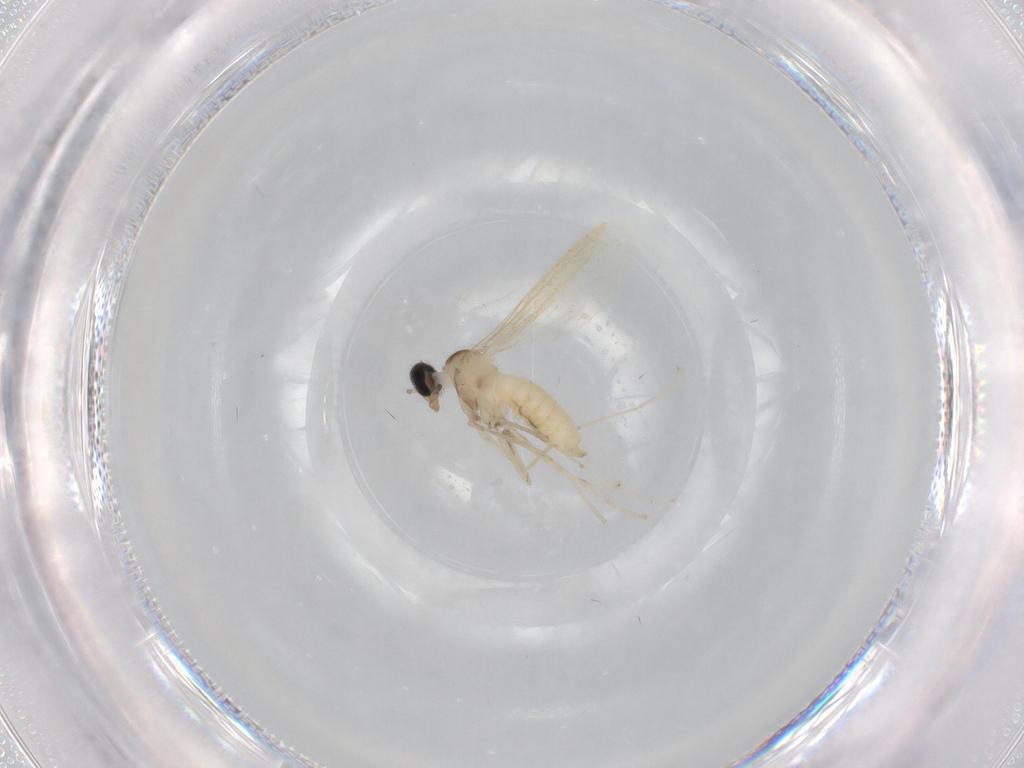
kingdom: Animalia
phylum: Arthropoda
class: Insecta
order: Diptera
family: Cecidomyiidae
